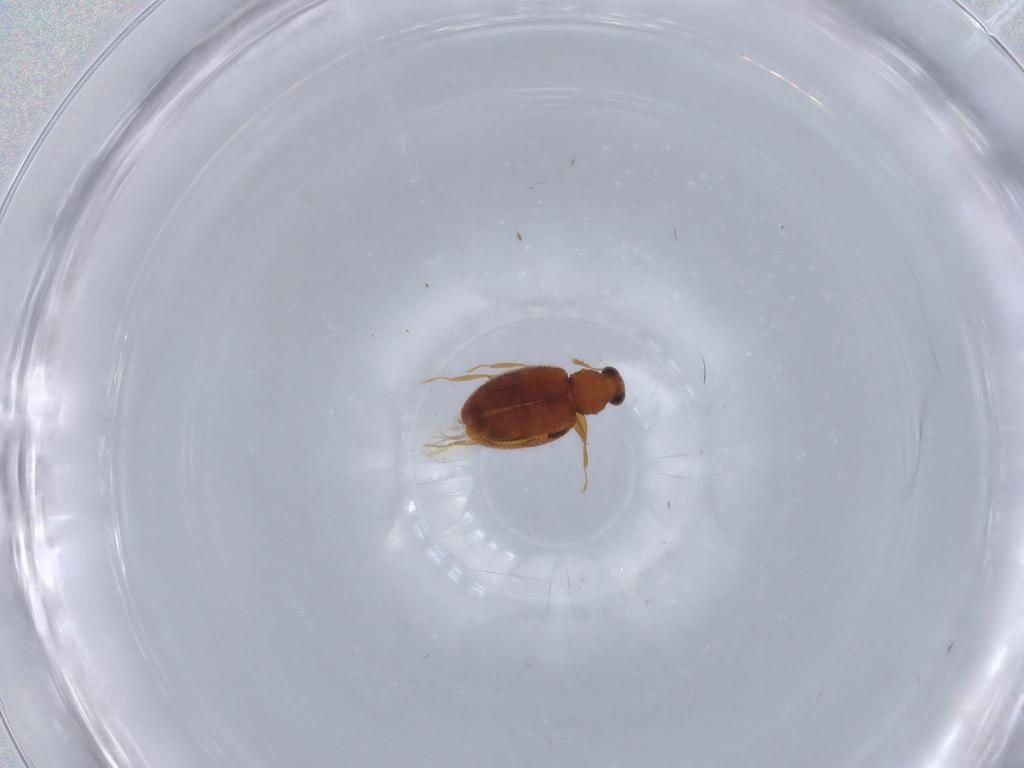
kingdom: Animalia
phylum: Arthropoda
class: Insecta
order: Coleoptera
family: Latridiidae
